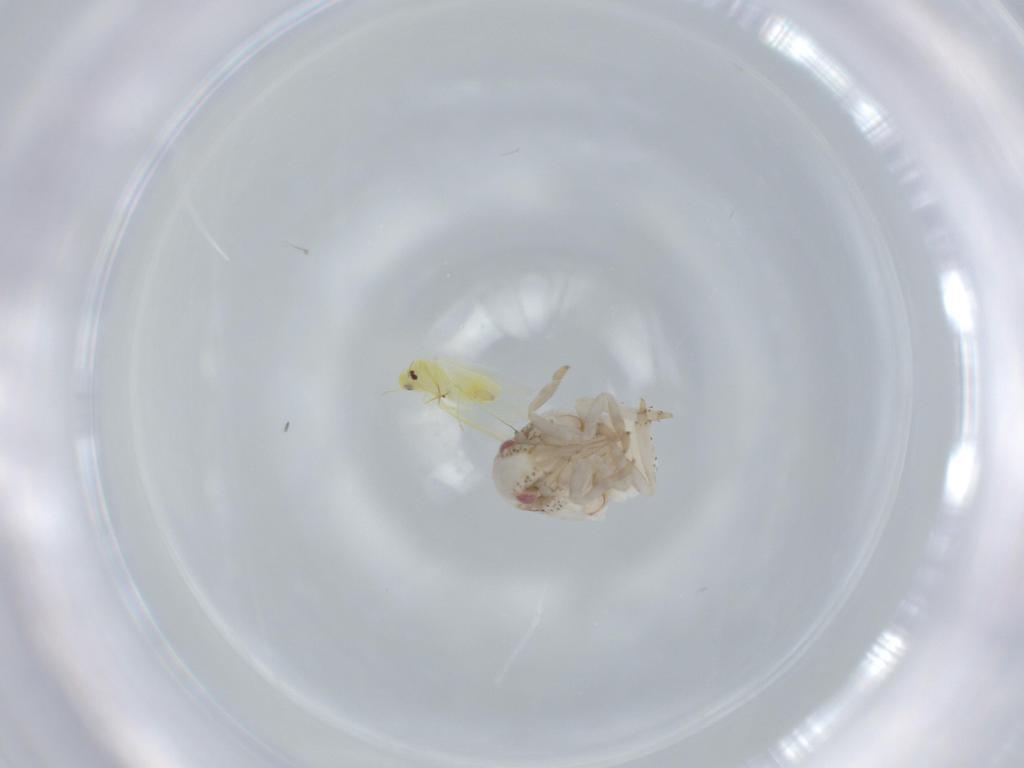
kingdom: Animalia
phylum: Arthropoda
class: Insecta
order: Hemiptera
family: Acanaloniidae
